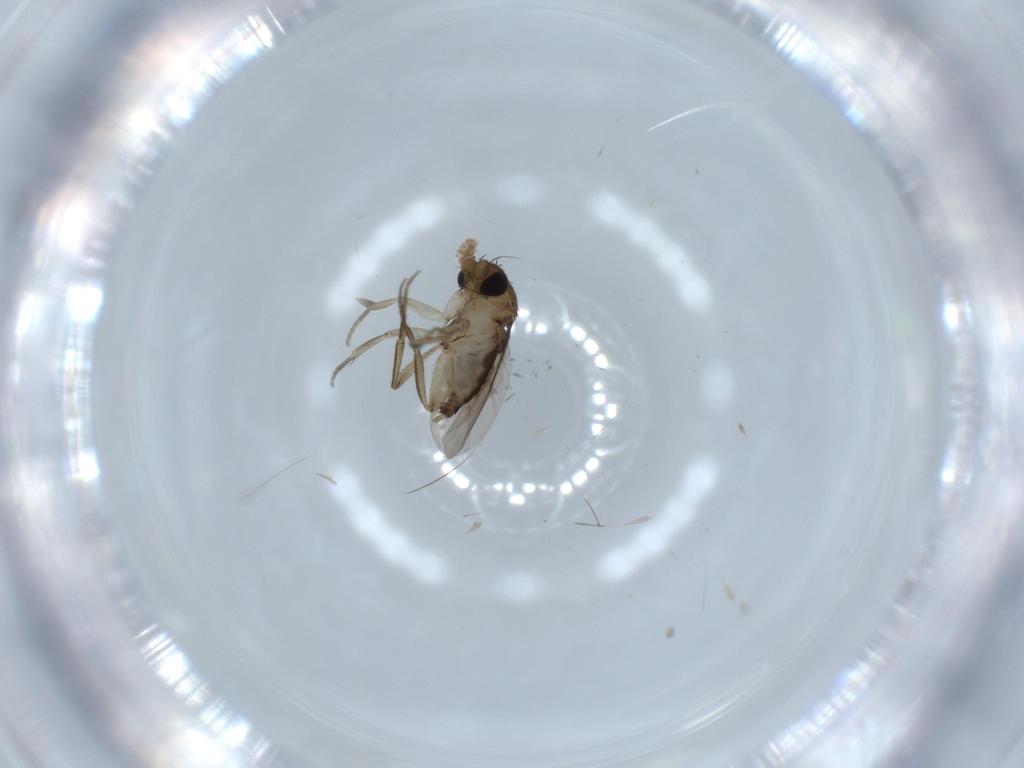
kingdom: Animalia
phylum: Arthropoda
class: Insecta
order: Diptera
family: Phoridae
